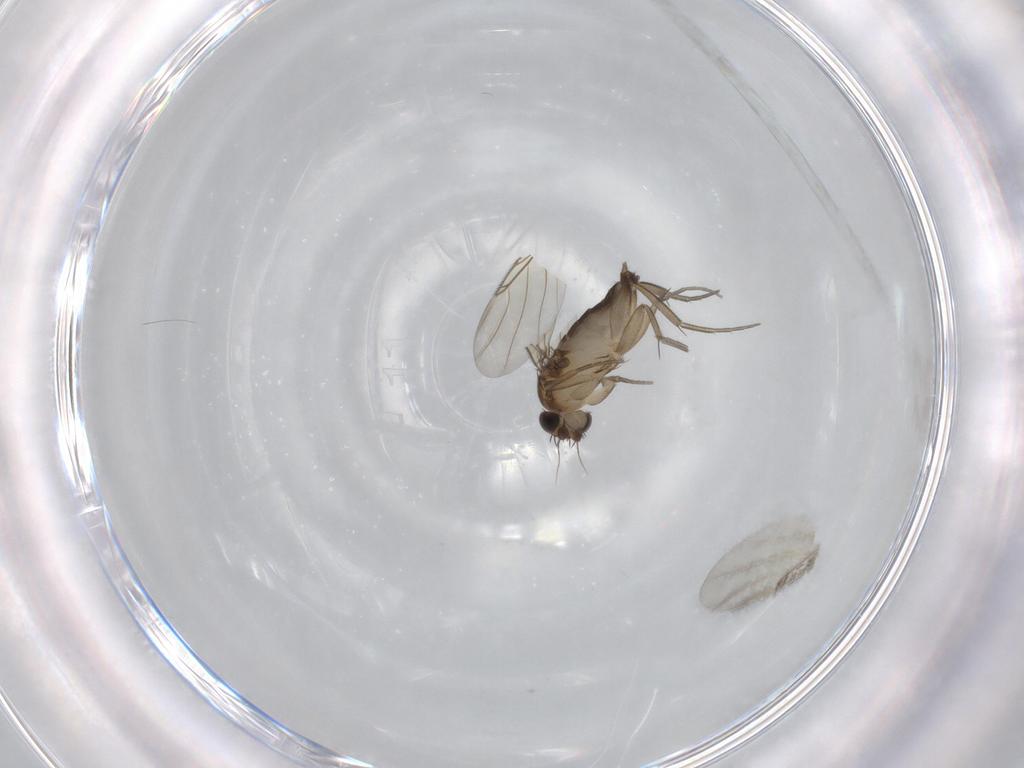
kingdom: Animalia
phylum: Arthropoda
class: Insecta
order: Diptera
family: Phoridae
